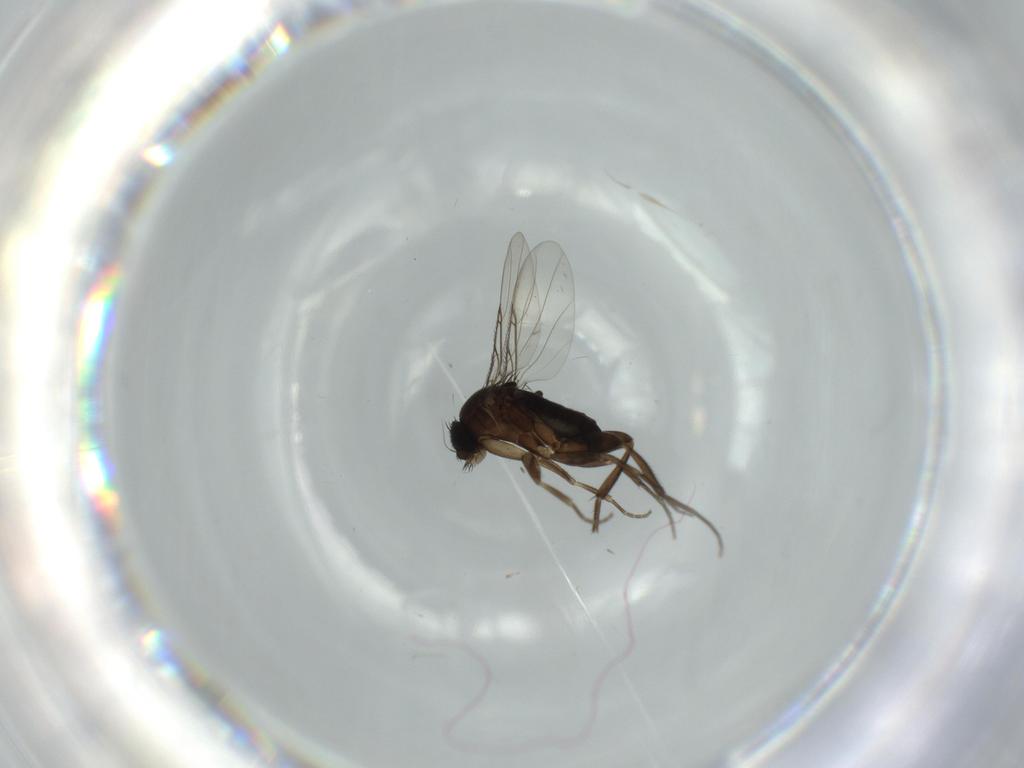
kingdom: Animalia
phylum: Arthropoda
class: Insecta
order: Diptera
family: Phoridae
